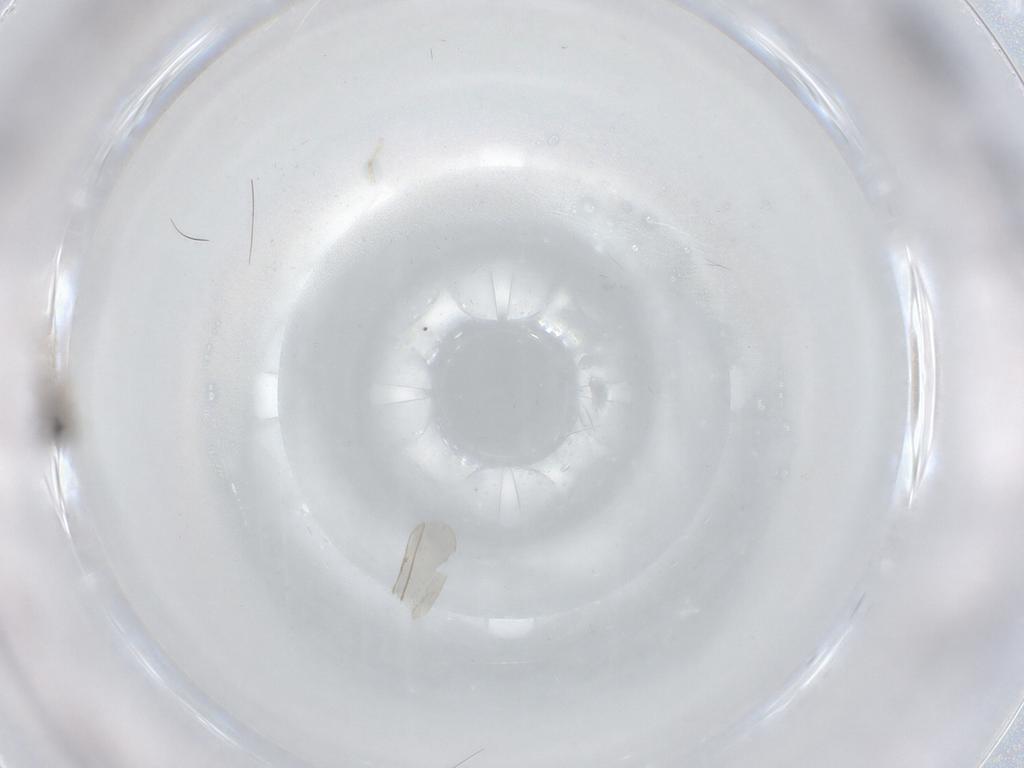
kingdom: Animalia
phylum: Arthropoda
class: Insecta
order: Diptera
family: Cecidomyiidae
